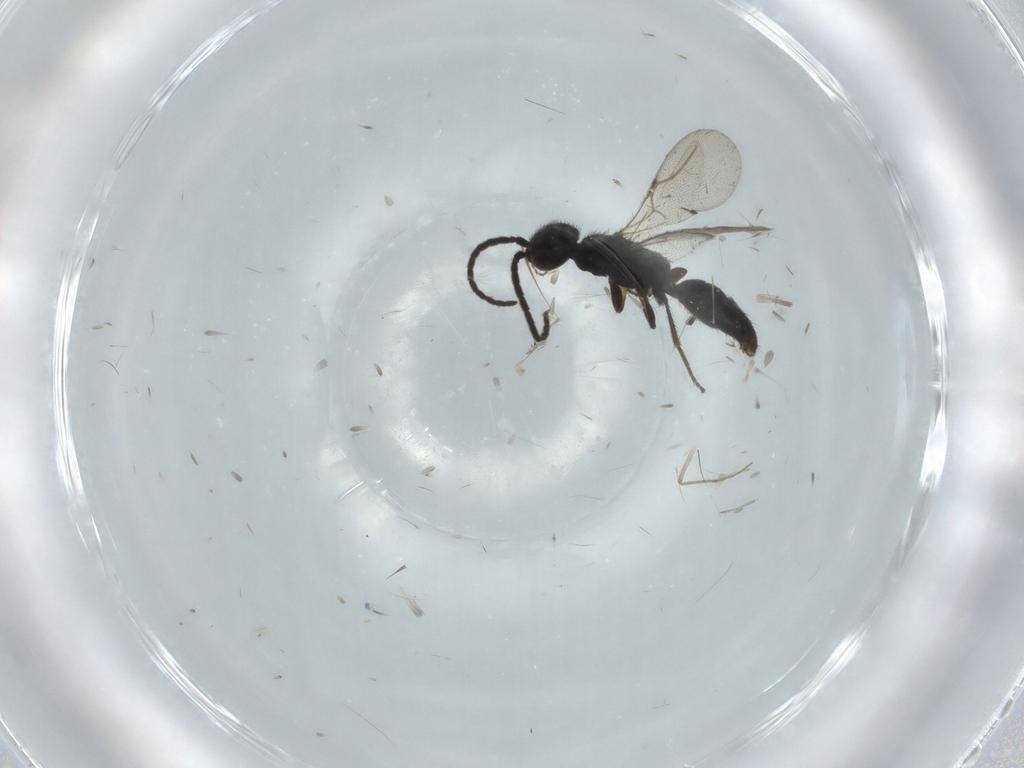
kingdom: Animalia
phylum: Arthropoda
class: Insecta
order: Hymenoptera
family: Bethylidae
